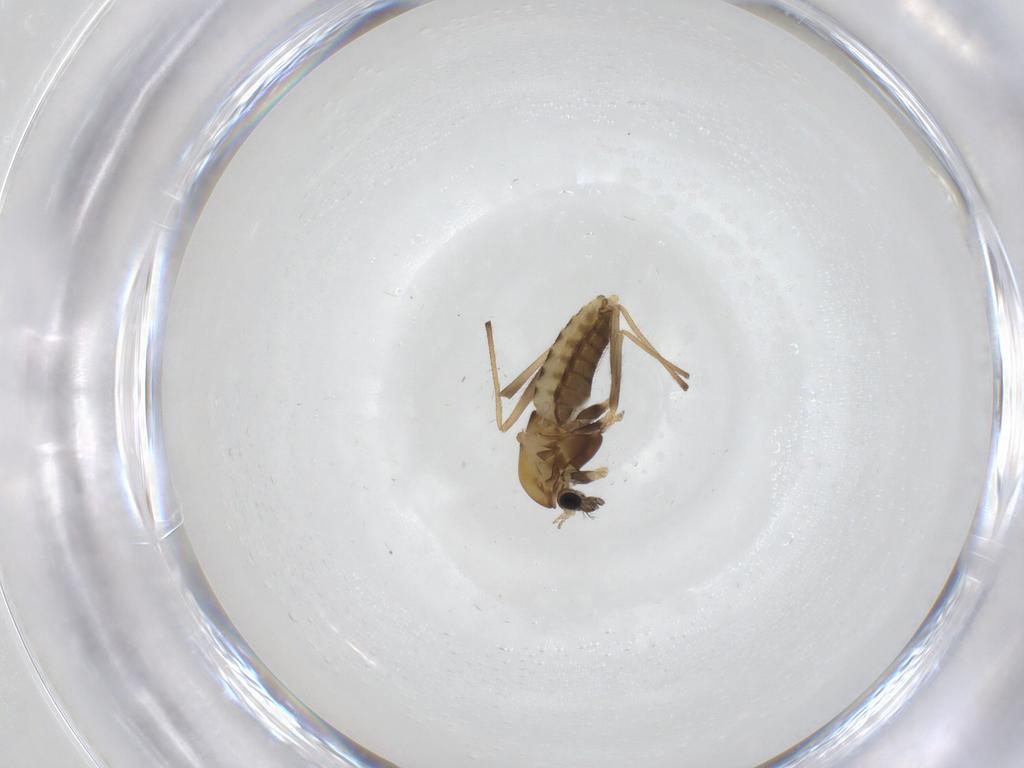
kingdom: Animalia
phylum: Arthropoda
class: Insecta
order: Diptera
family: Chironomidae
